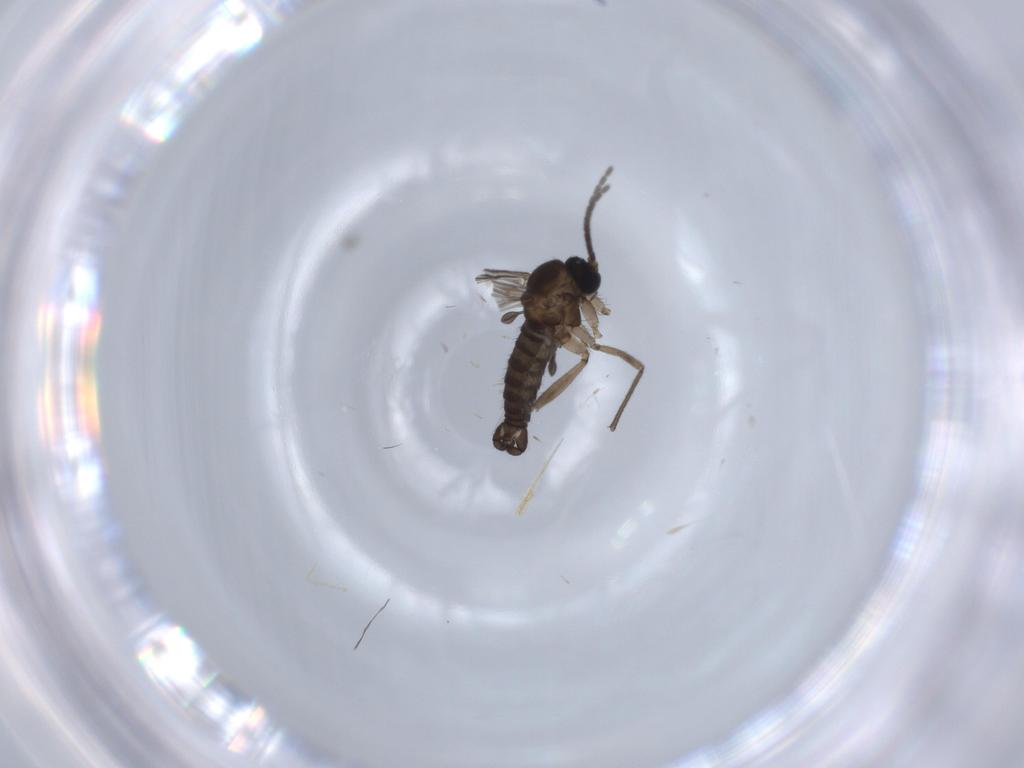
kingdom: Animalia
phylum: Arthropoda
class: Insecta
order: Diptera
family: Sciaridae
